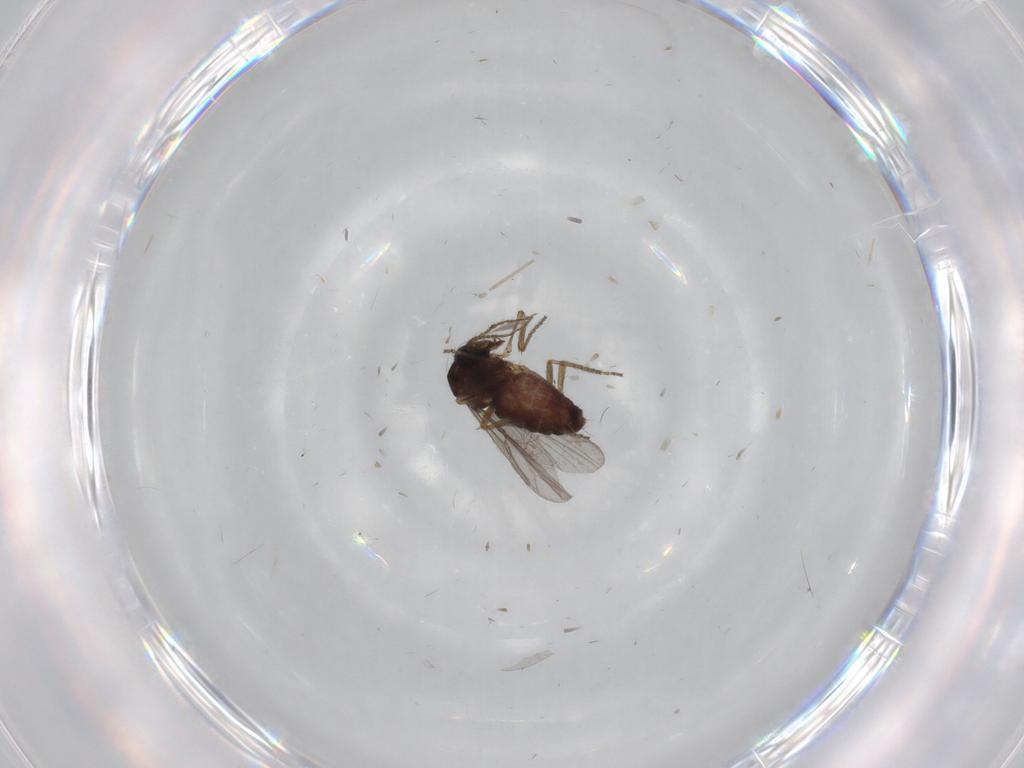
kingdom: Animalia
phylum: Arthropoda
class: Insecta
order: Diptera
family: Ceratopogonidae
